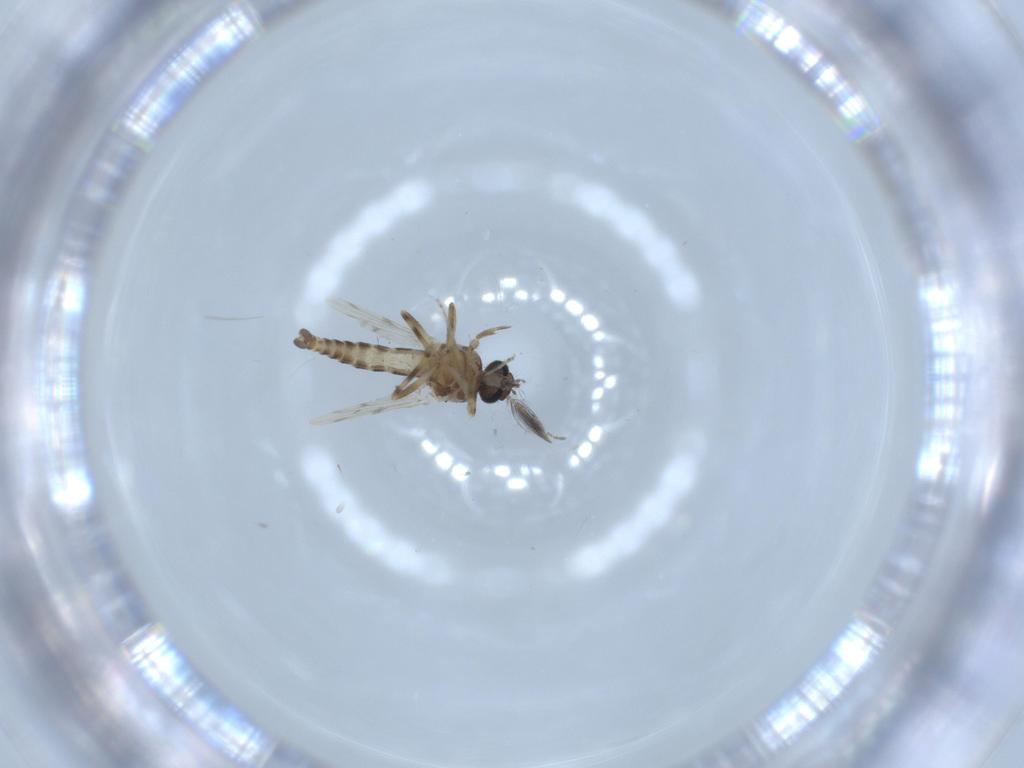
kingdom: Animalia
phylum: Arthropoda
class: Insecta
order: Diptera
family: Ceratopogonidae
